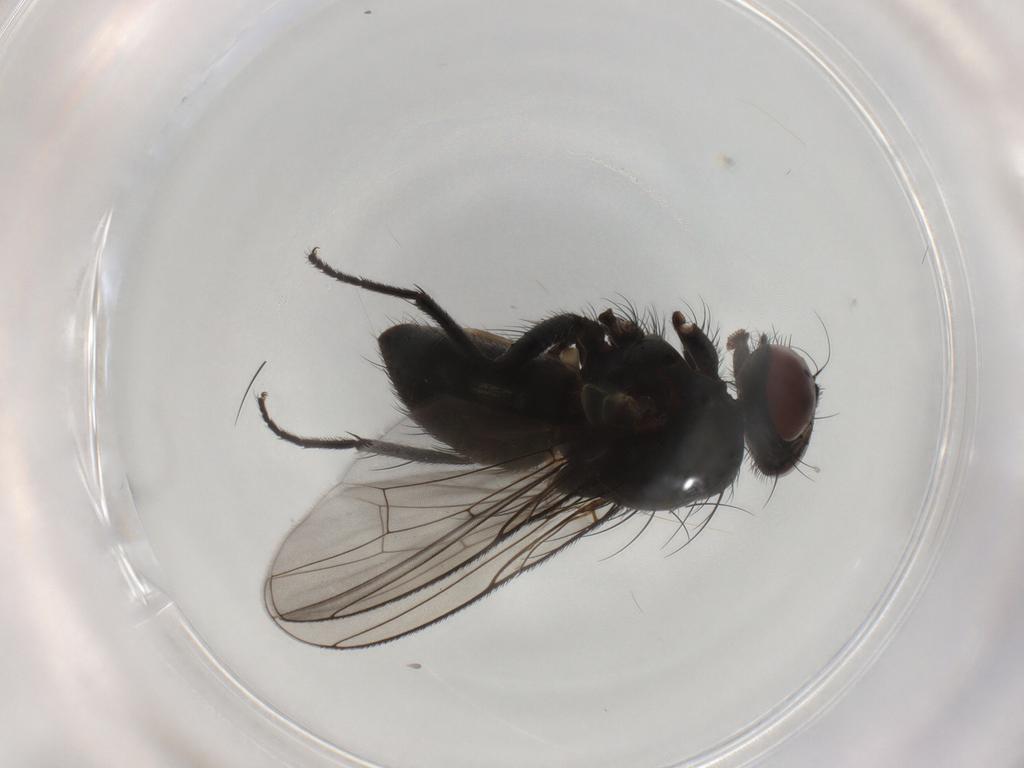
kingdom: Animalia
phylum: Arthropoda
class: Insecta
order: Diptera
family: Muscidae
